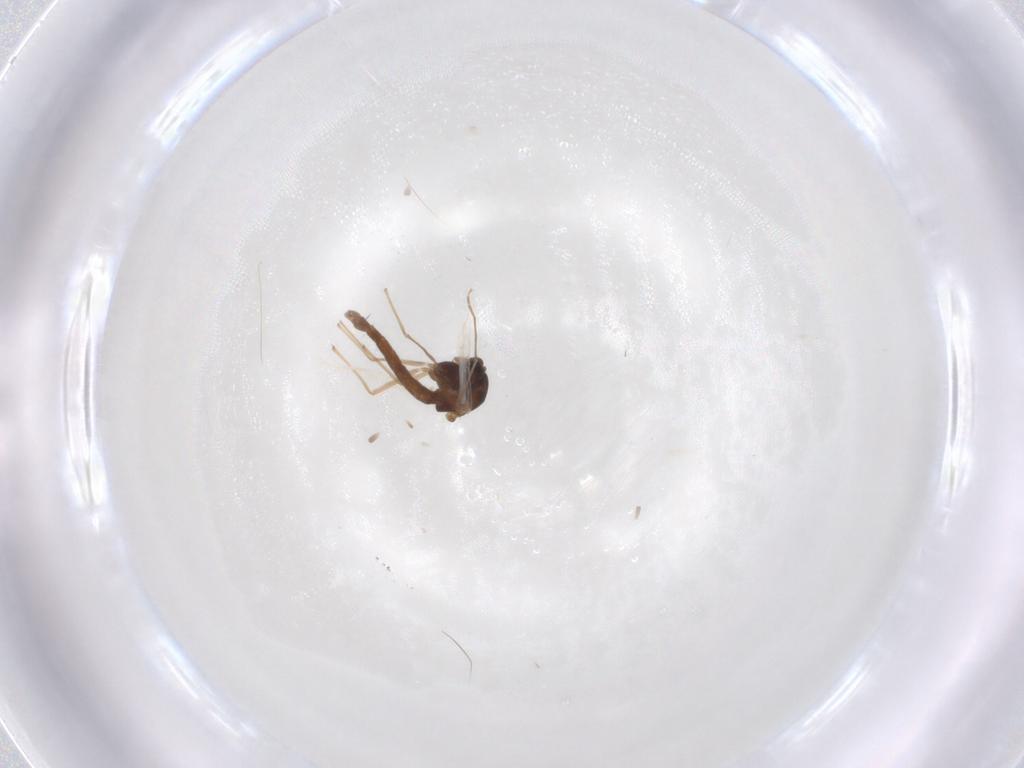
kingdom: Animalia
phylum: Arthropoda
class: Insecta
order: Diptera
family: Chironomidae
